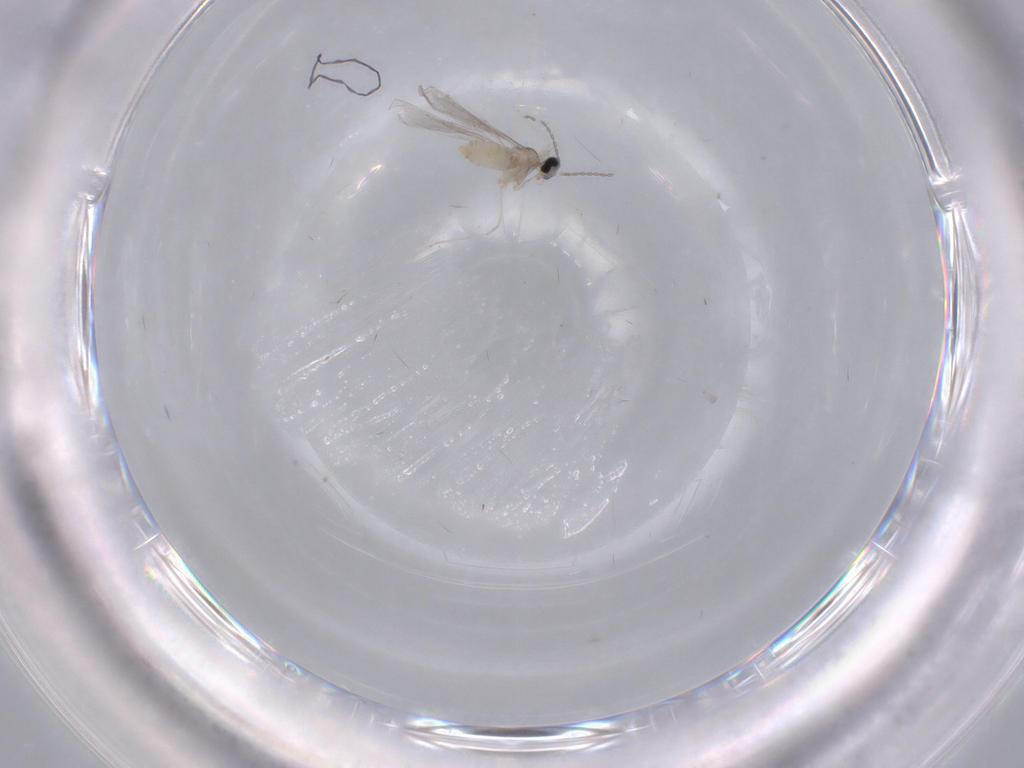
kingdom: Animalia
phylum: Arthropoda
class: Insecta
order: Diptera
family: Cecidomyiidae
